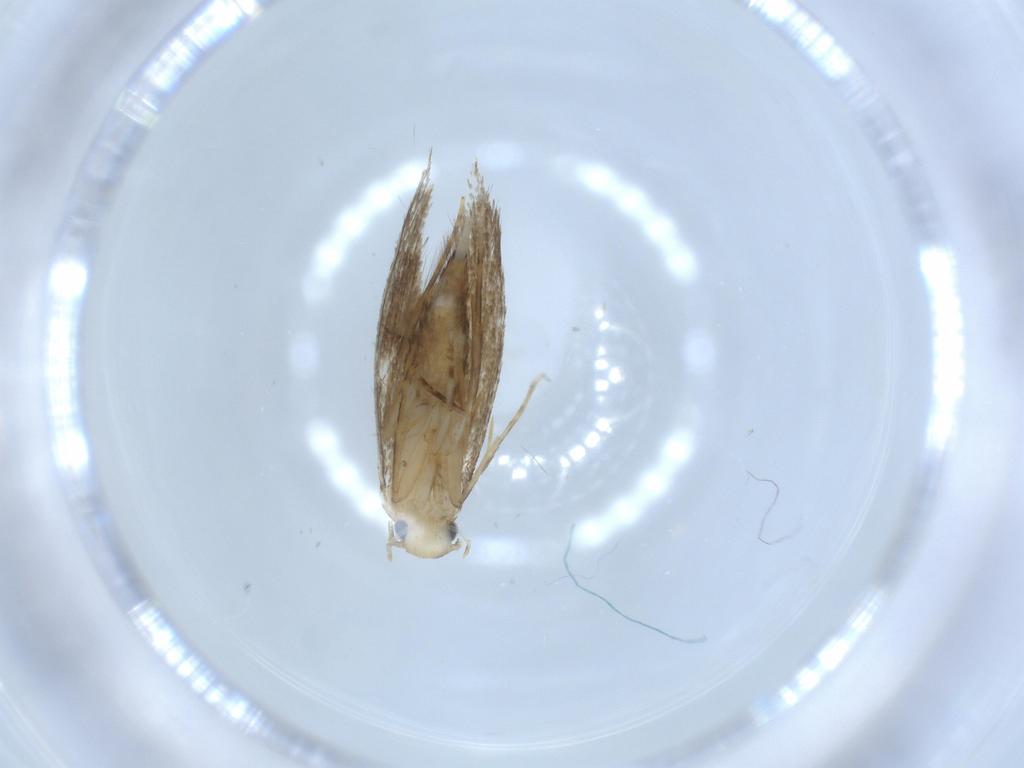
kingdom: Animalia
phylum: Arthropoda
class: Insecta
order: Lepidoptera
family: Tineidae
